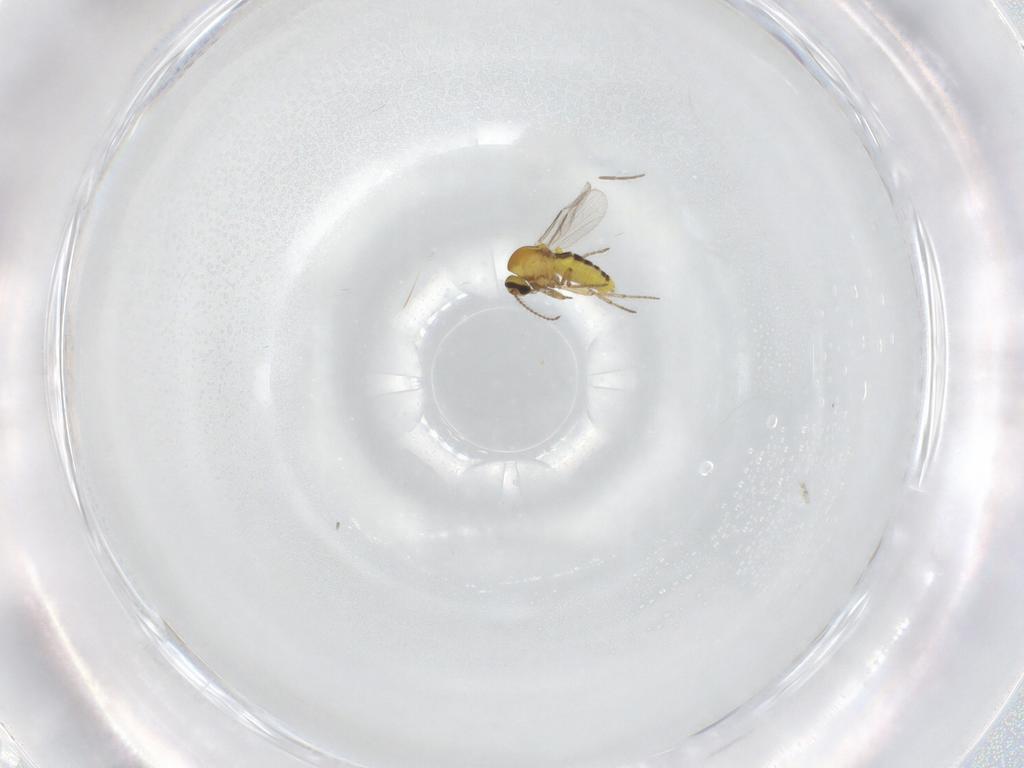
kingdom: Animalia
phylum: Arthropoda
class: Insecta
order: Diptera
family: Ceratopogonidae
